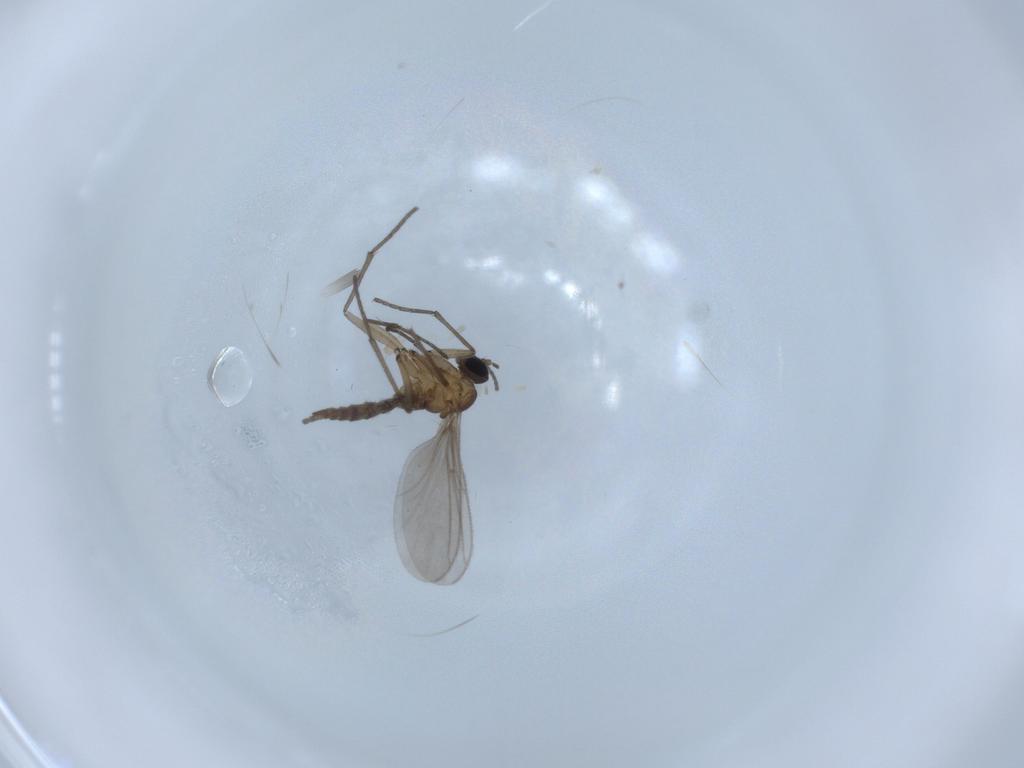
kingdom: Animalia
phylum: Arthropoda
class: Insecta
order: Diptera
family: Sciaridae
